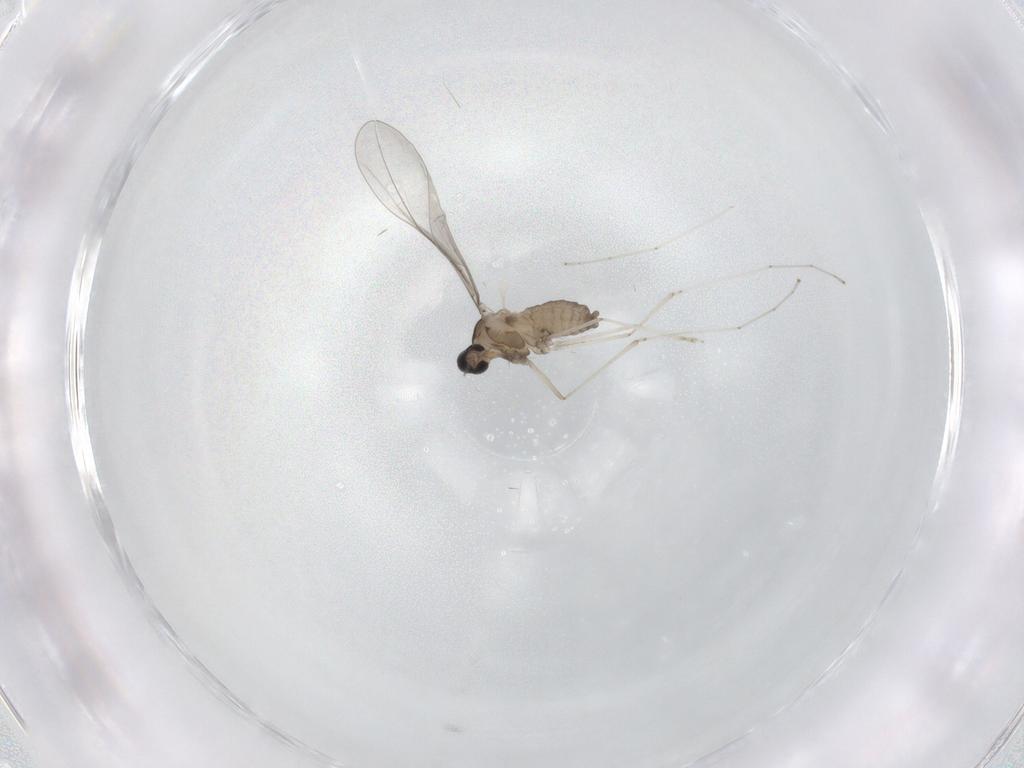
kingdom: Animalia
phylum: Arthropoda
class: Insecta
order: Diptera
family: Cecidomyiidae
